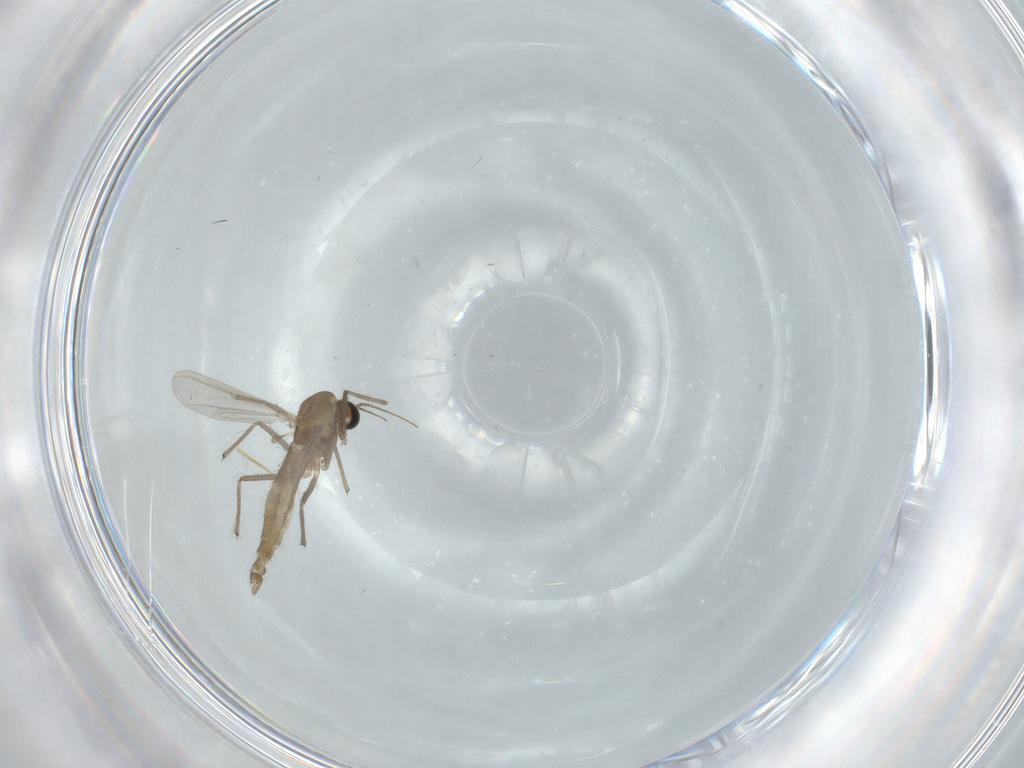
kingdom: Animalia
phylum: Arthropoda
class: Insecta
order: Diptera
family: Chironomidae
